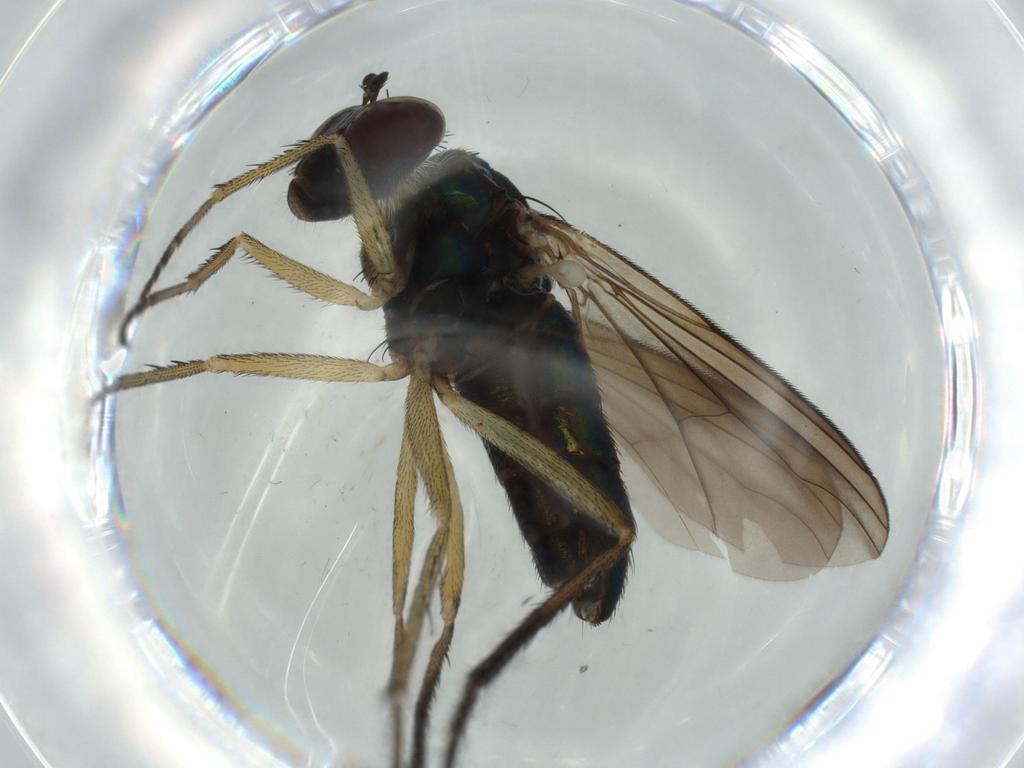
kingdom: Animalia
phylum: Arthropoda
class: Insecta
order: Diptera
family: Dolichopodidae
